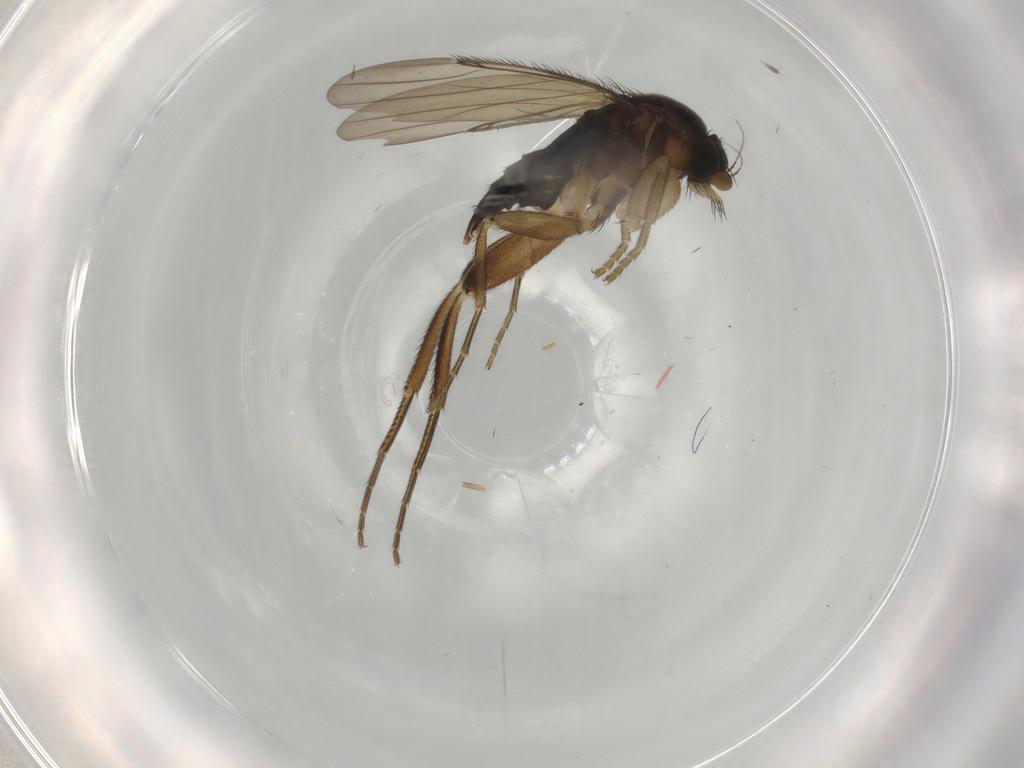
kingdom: Animalia
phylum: Arthropoda
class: Insecta
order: Diptera
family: Phoridae
